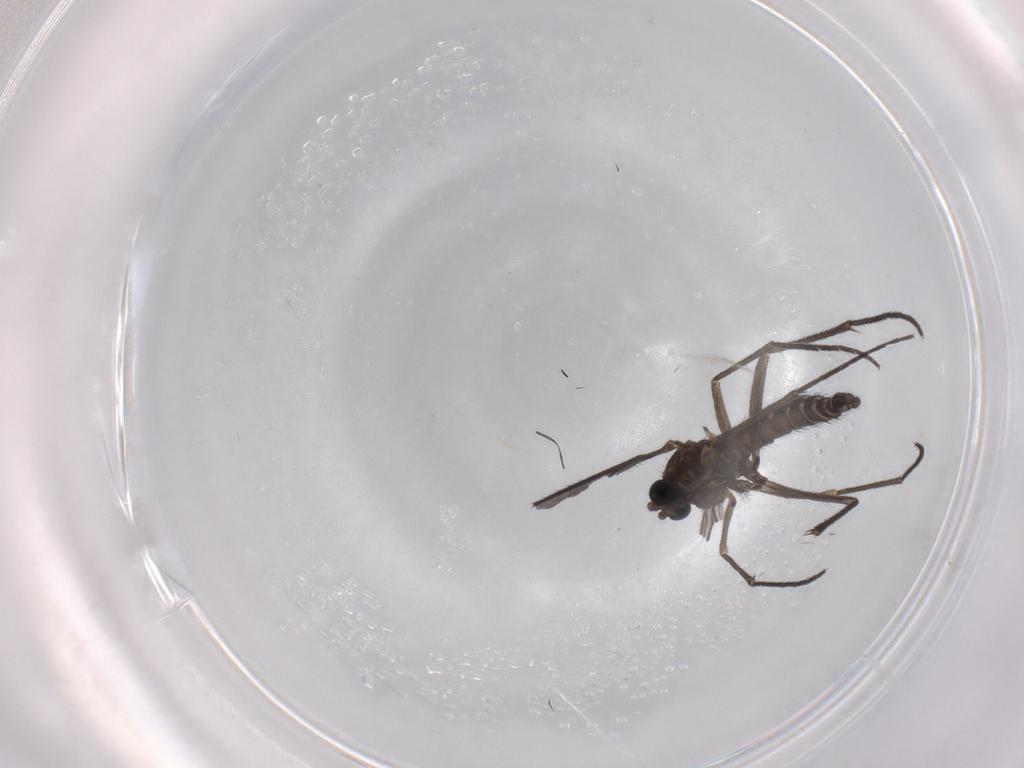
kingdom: Animalia
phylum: Arthropoda
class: Insecta
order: Diptera
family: Sciaridae
